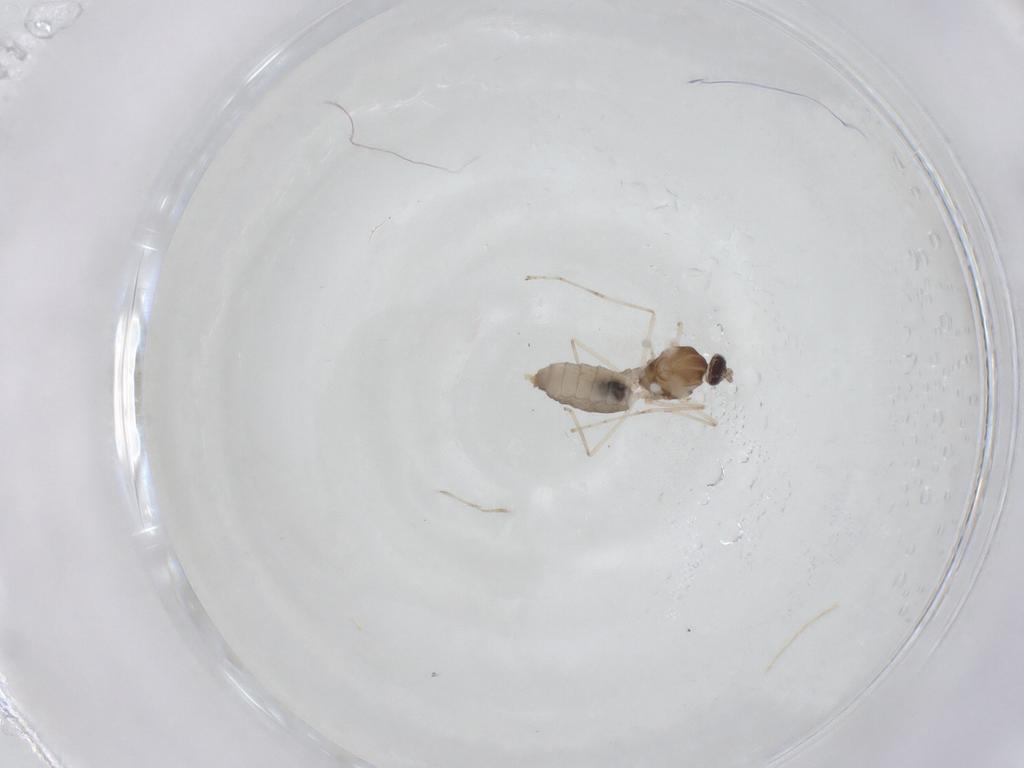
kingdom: Animalia
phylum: Arthropoda
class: Insecta
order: Diptera
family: Cecidomyiidae
